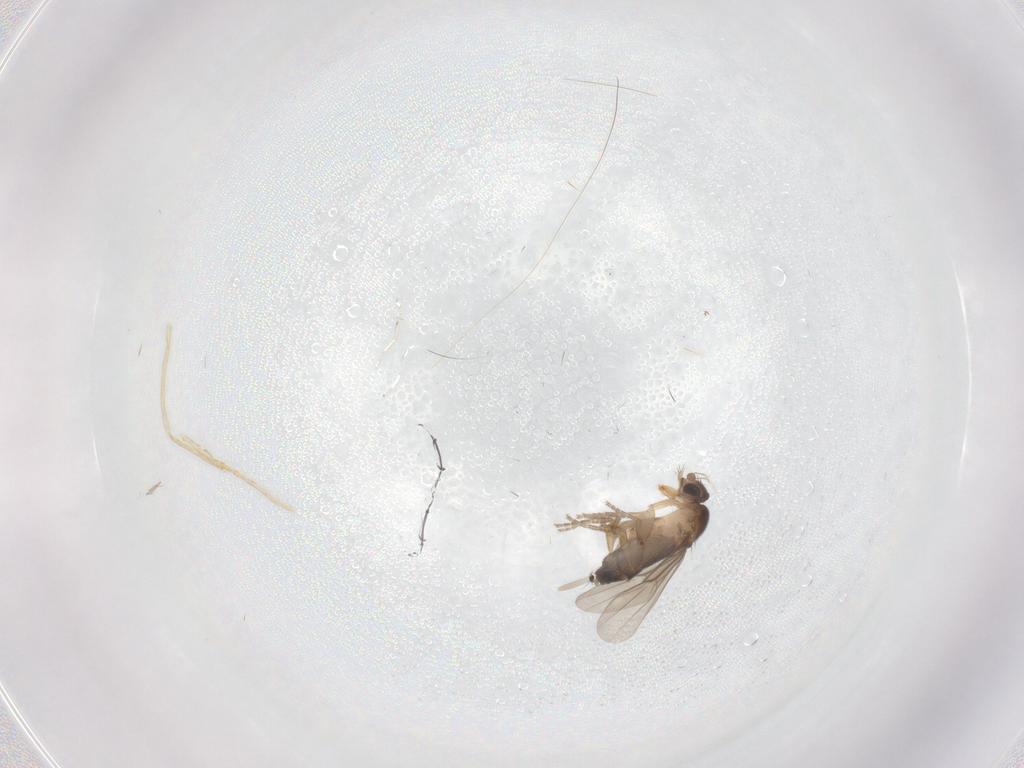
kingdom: Animalia
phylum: Arthropoda
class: Insecta
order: Diptera
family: Phoridae
